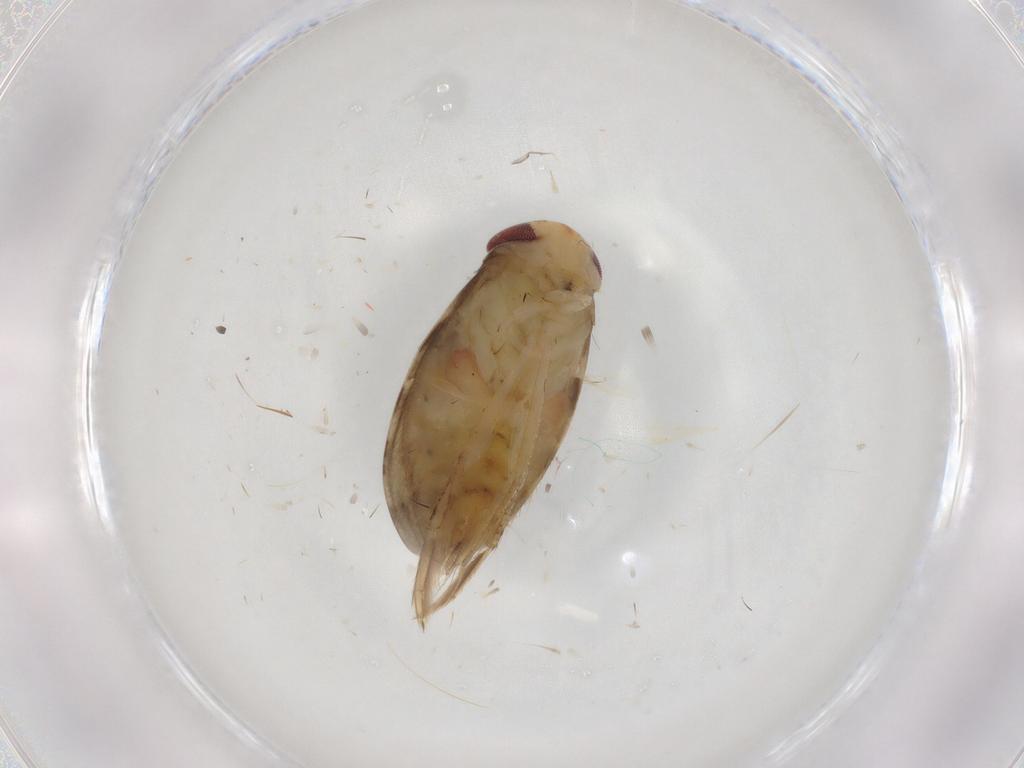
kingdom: Animalia
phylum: Arthropoda
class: Insecta
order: Hemiptera
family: Corixidae
